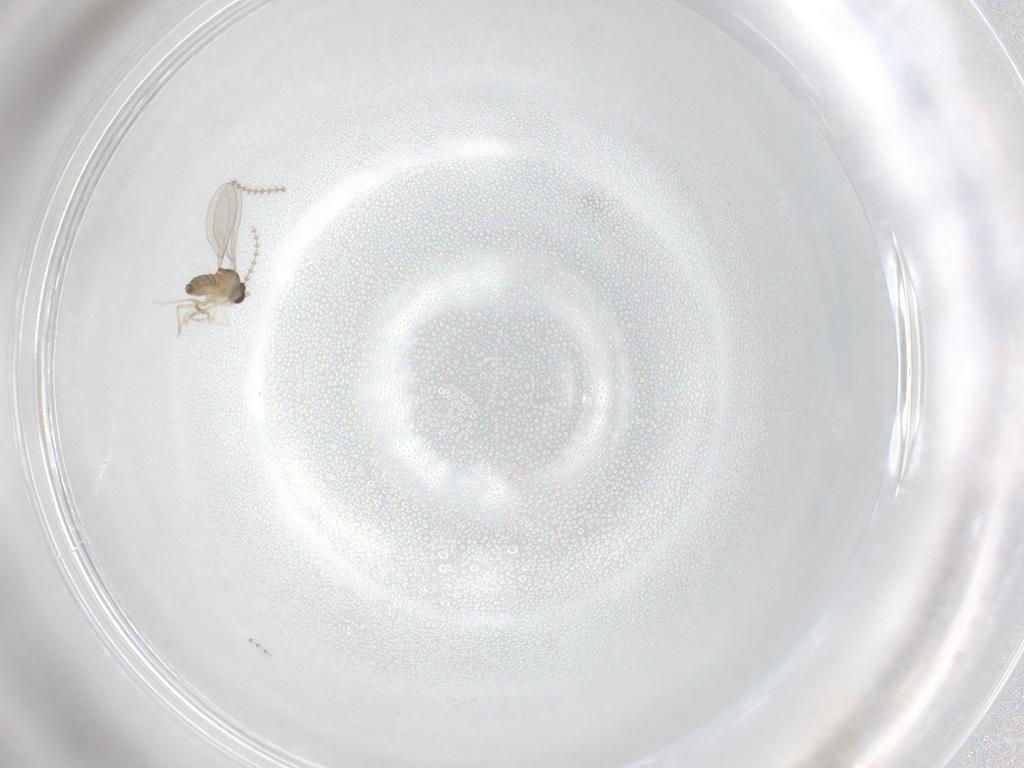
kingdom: Animalia
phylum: Arthropoda
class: Insecta
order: Diptera
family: Cecidomyiidae
